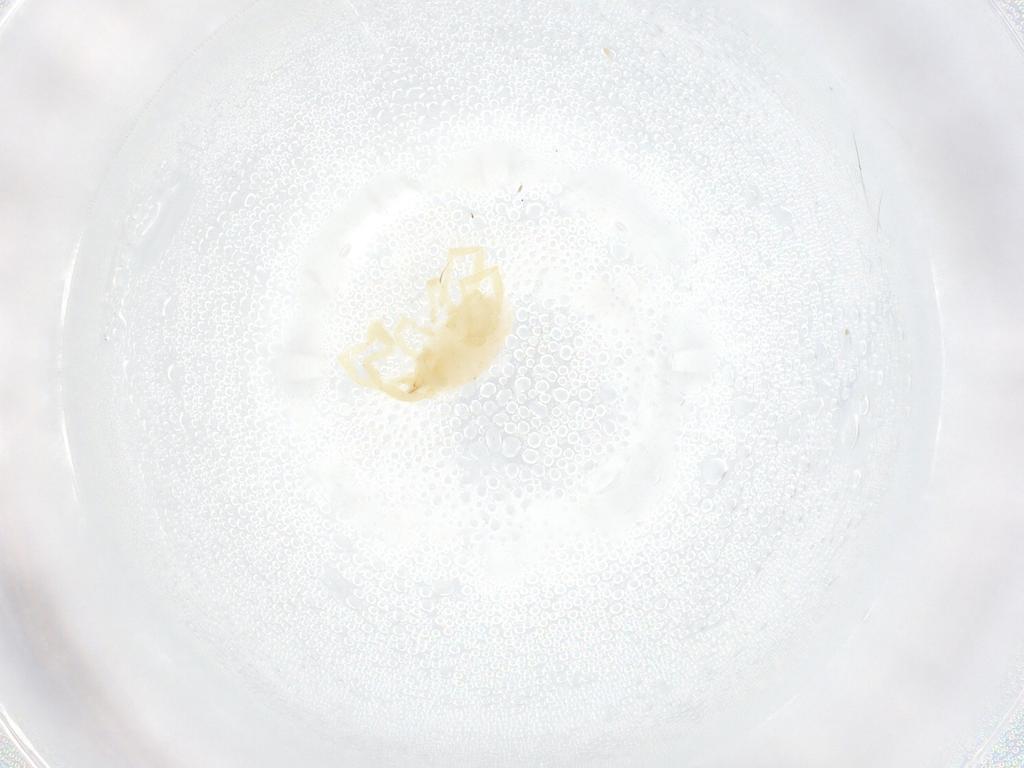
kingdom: Animalia
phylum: Arthropoda
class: Arachnida
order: Trombidiformes
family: Erythraeidae
